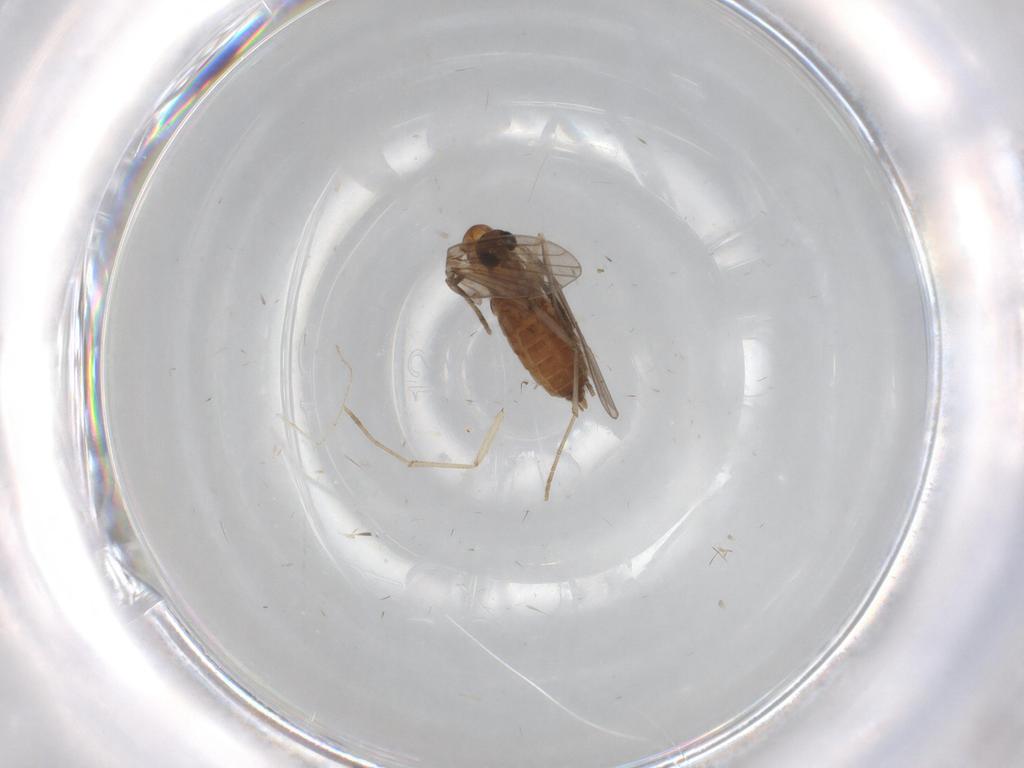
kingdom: Animalia
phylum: Arthropoda
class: Insecta
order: Diptera
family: Cecidomyiidae
